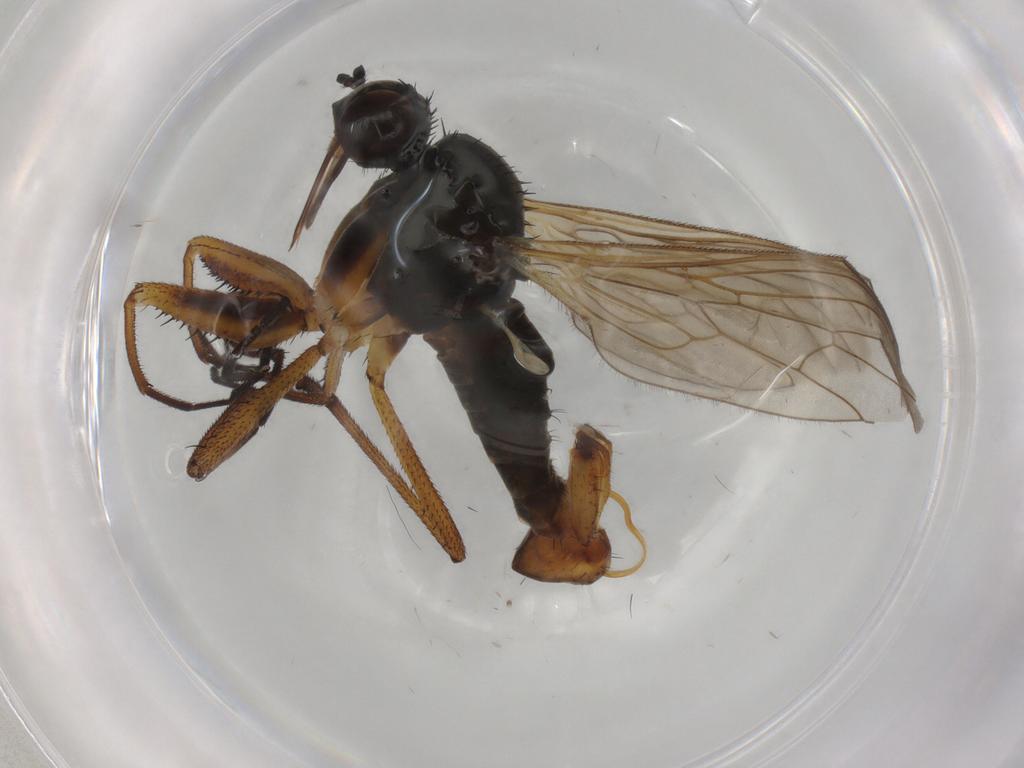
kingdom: Animalia
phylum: Arthropoda
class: Insecta
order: Diptera
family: Empididae
